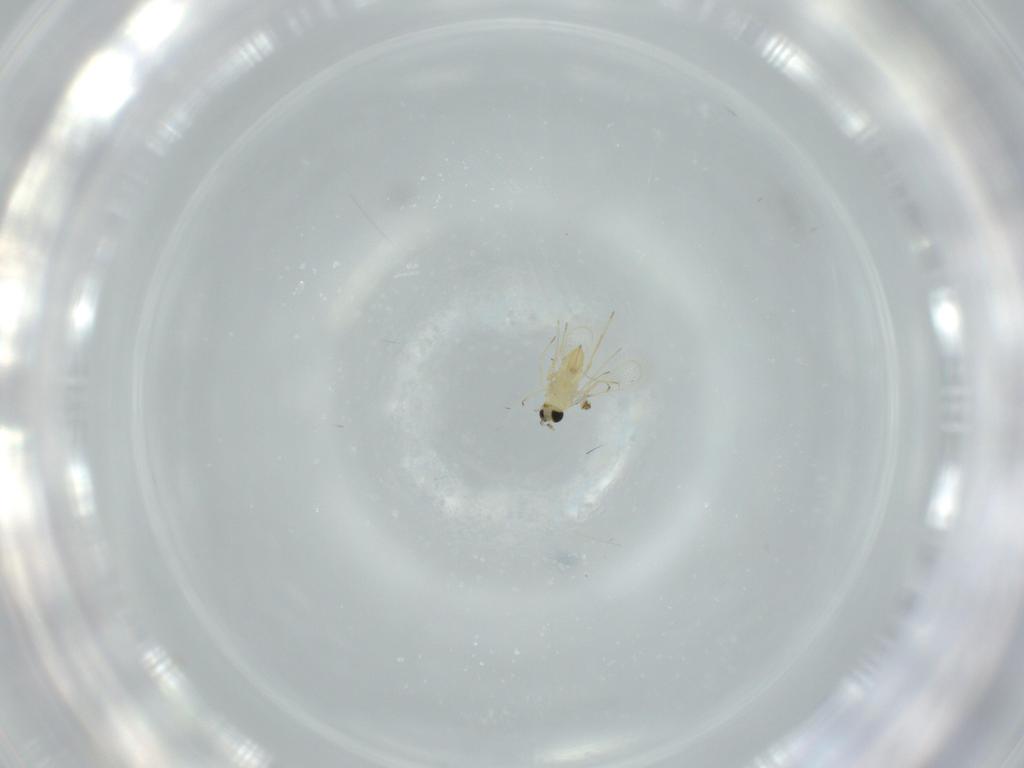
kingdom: Animalia
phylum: Arthropoda
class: Insecta
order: Hymenoptera
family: Trichogrammatidae
